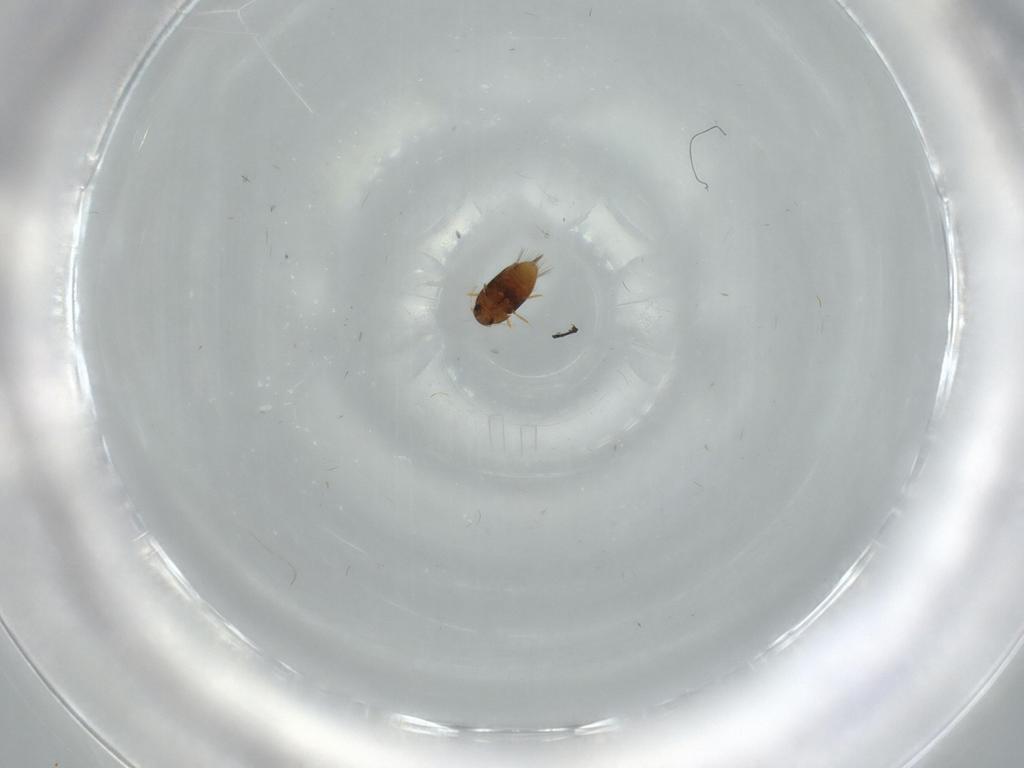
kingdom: Animalia
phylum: Arthropoda
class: Insecta
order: Coleoptera
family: Ptiliidae
